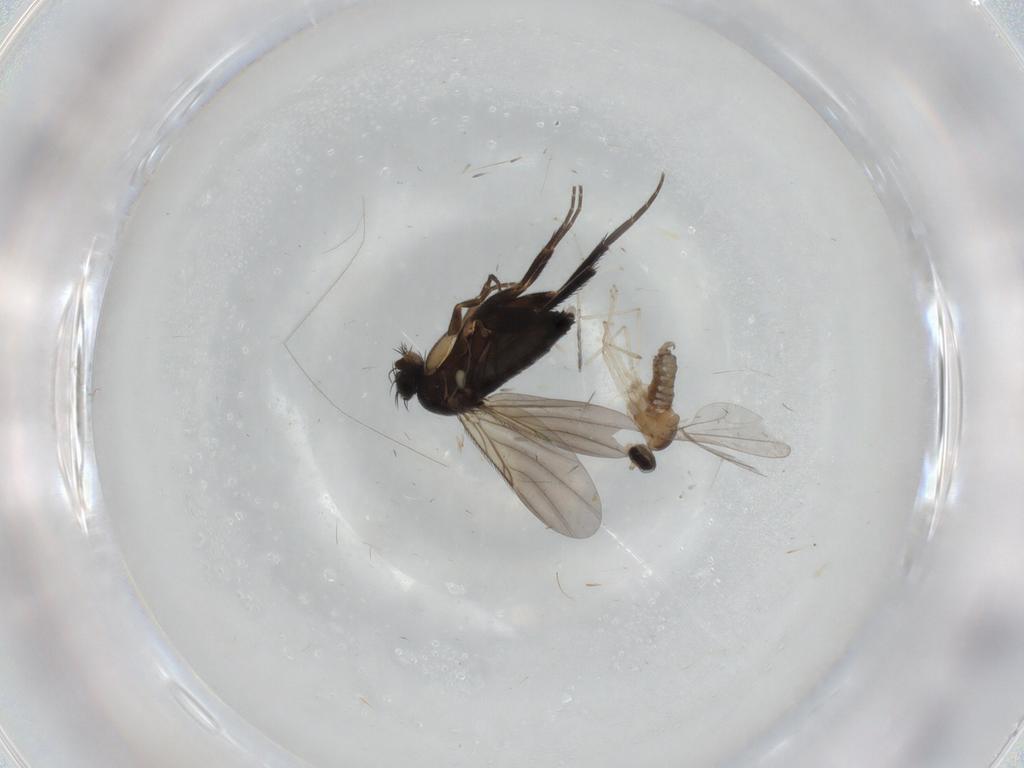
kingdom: Animalia
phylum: Arthropoda
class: Insecta
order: Diptera
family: Phoridae
